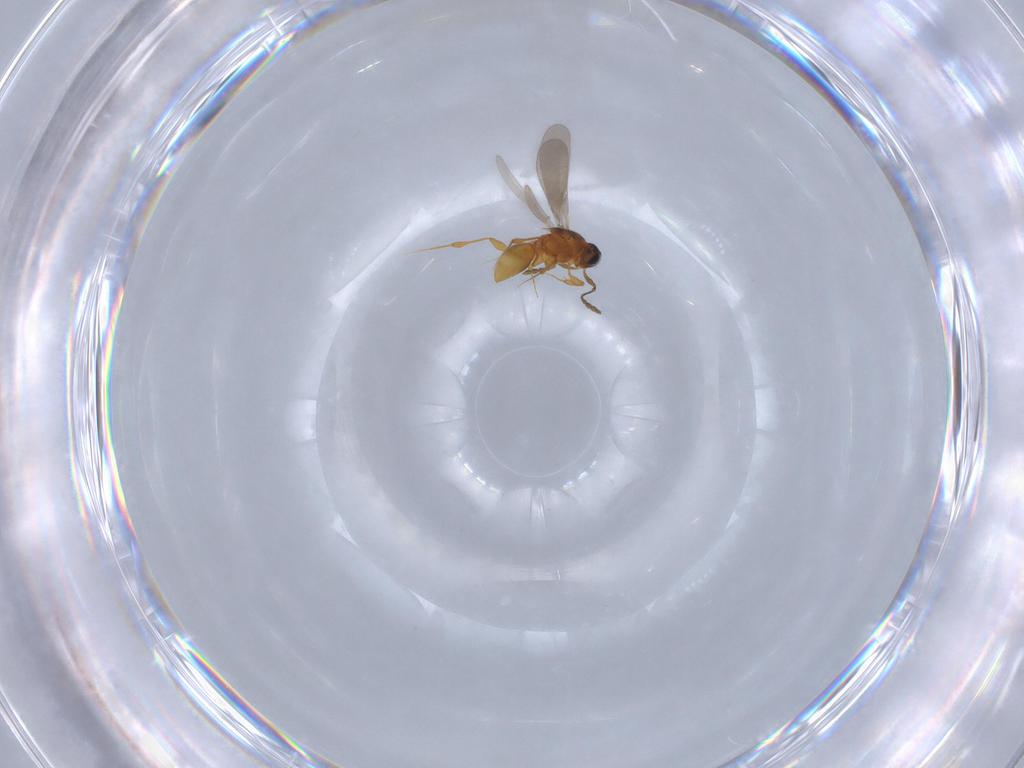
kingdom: Animalia
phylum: Arthropoda
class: Insecta
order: Hymenoptera
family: Platygastridae
